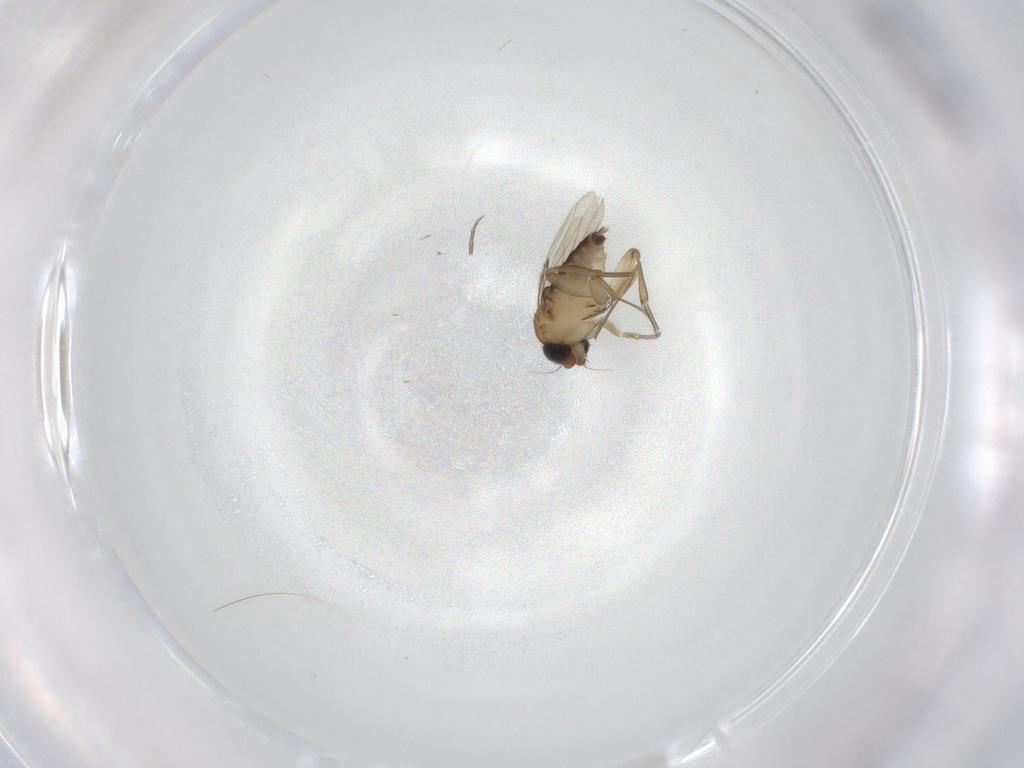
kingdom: Animalia
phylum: Arthropoda
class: Insecta
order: Diptera
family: Phoridae
